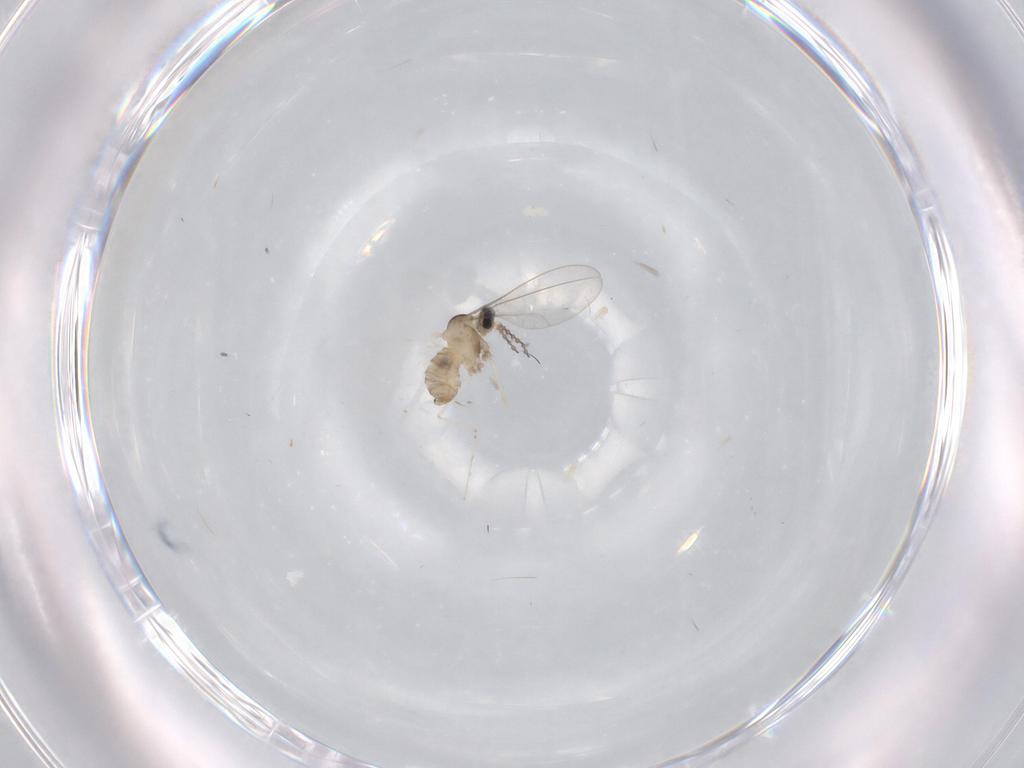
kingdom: Animalia
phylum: Arthropoda
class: Insecta
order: Diptera
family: Cecidomyiidae
